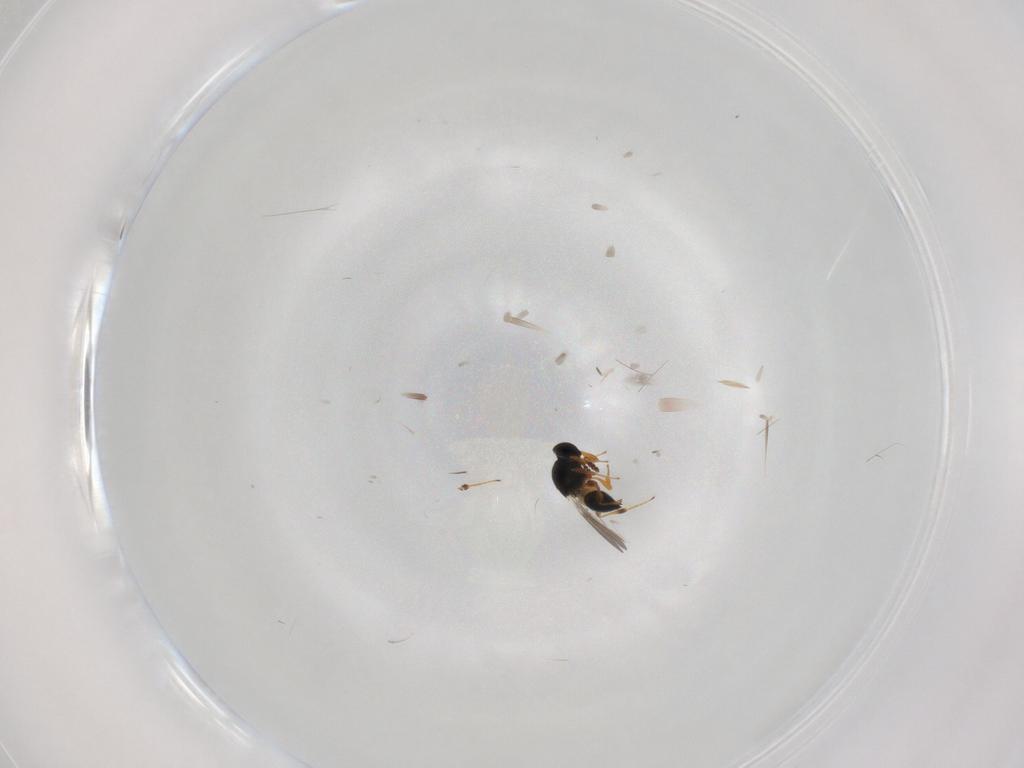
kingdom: Animalia
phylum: Arthropoda
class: Insecta
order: Hymenoptera
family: Platygastridae
